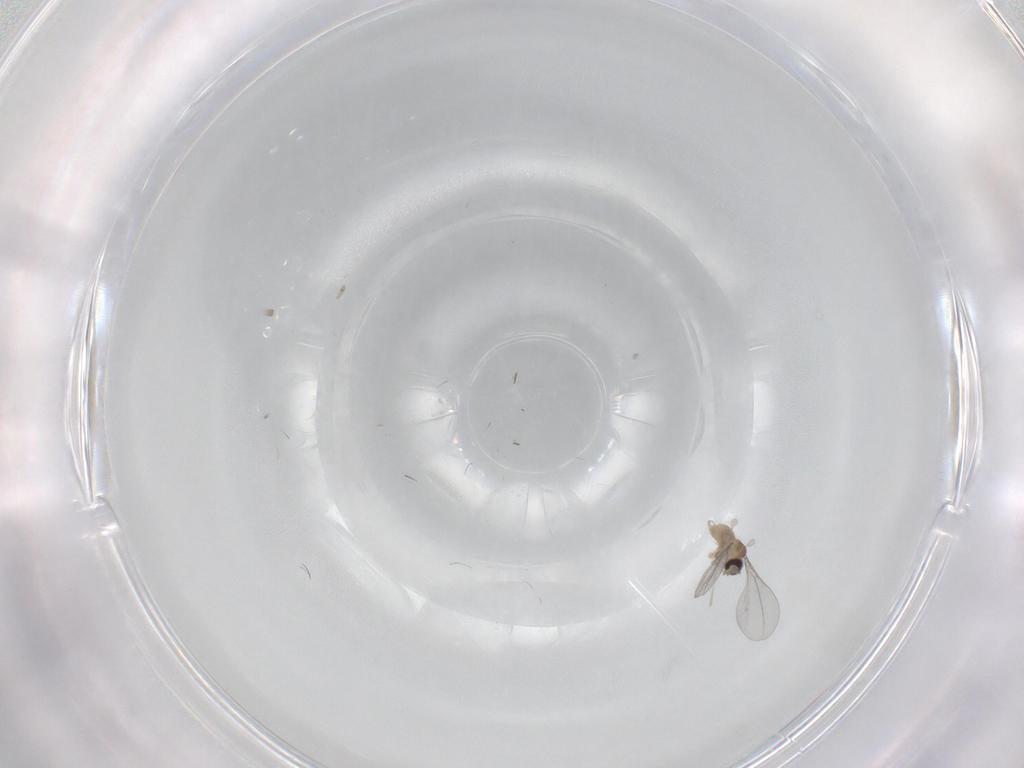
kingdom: Animalia
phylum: Arthropoda
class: Insecta
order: Diptera
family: Cecidomyiidae
